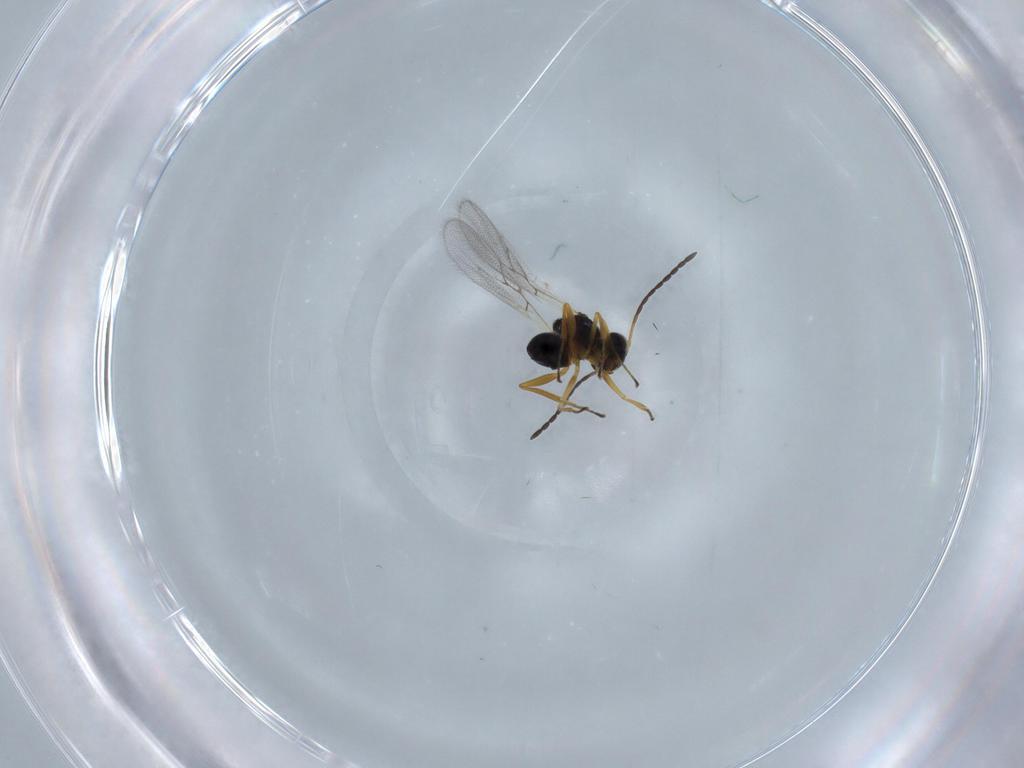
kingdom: Animalia
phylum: Arthropoda
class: Insecta
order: Hymenoptera
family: Figitidae
